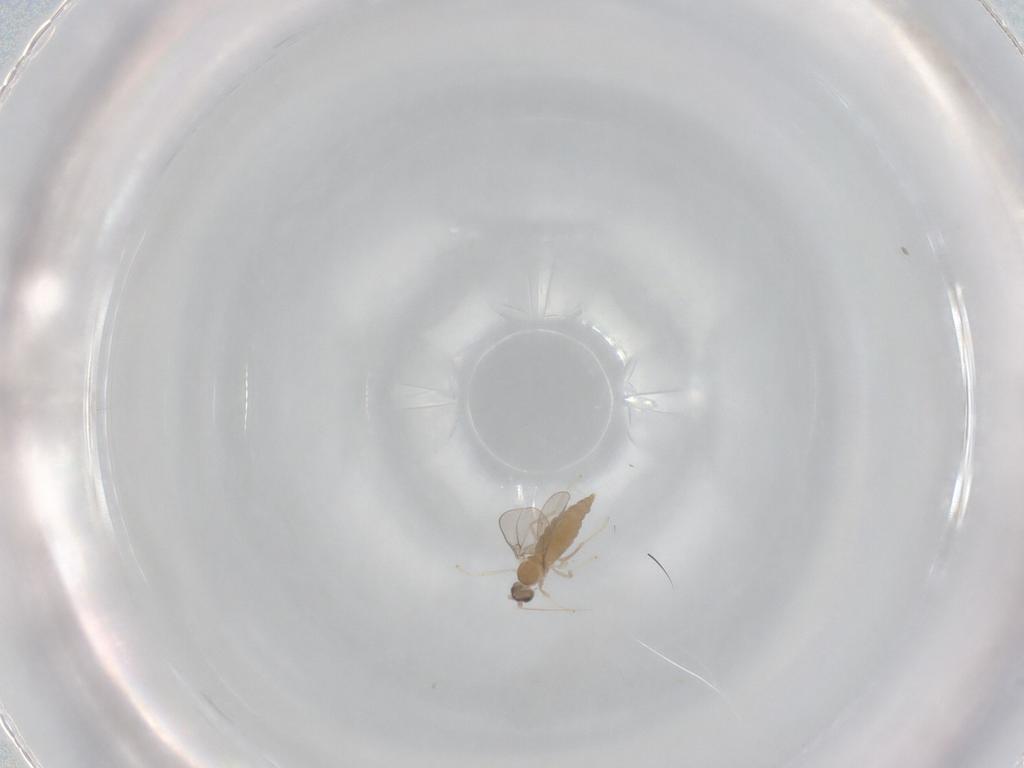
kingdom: Animalia
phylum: Arthropoda
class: Insecta
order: Diptera
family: Cecidomyiidae
